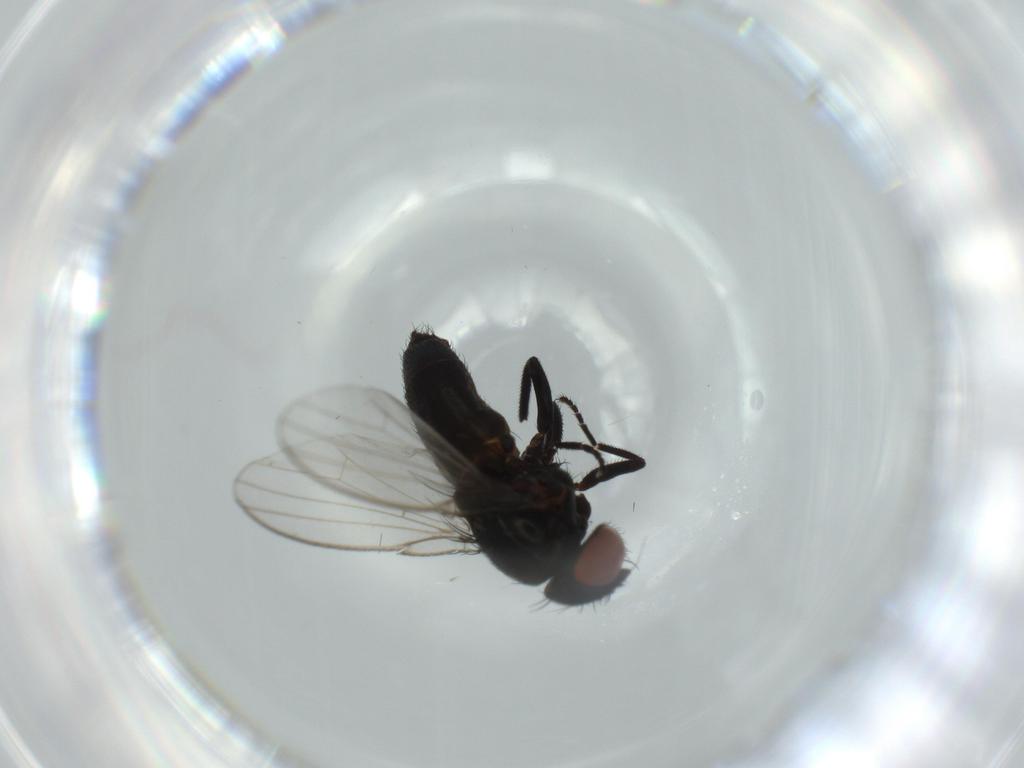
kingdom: Animalia
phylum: Arthropoda
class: Insecta
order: Diptera
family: Milichiidae
